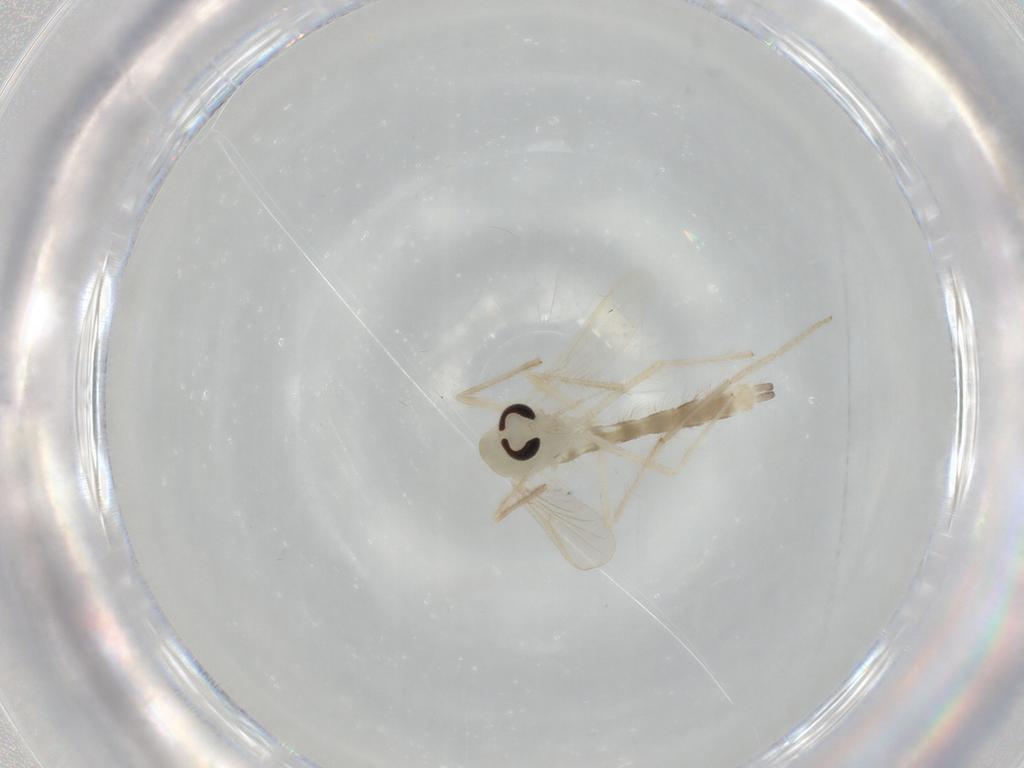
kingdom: Animalia
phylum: Arthropoda
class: Insecta
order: Diptera
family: Chironomidae
